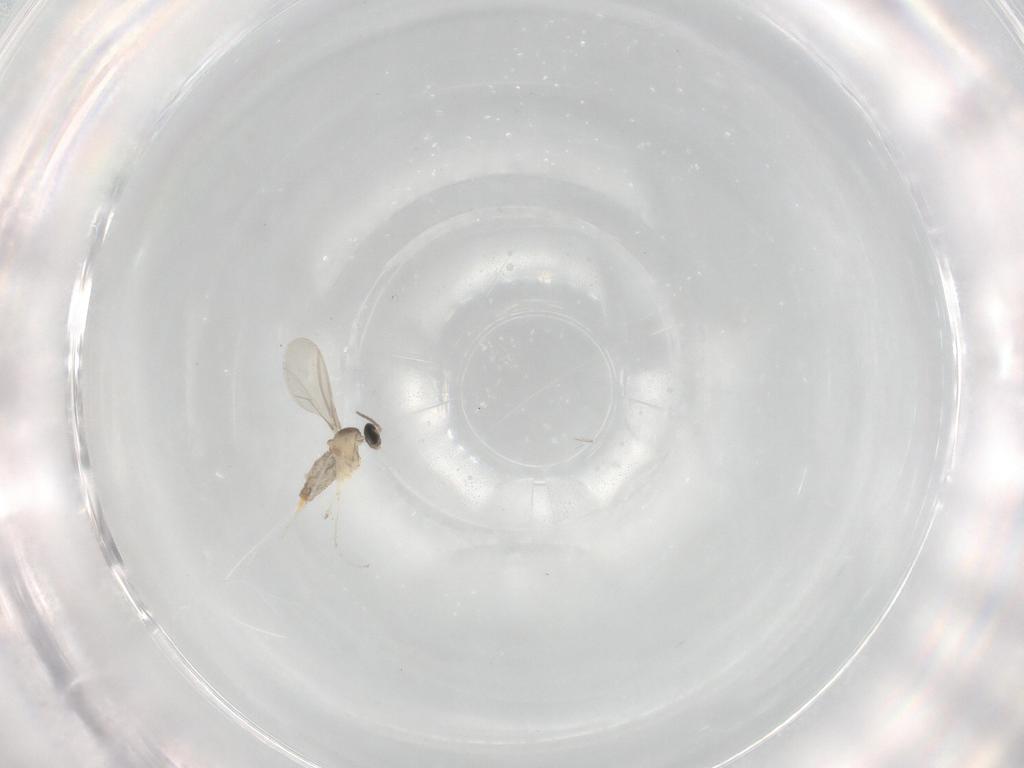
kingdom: Animalia
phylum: Arthropoda
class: Insecta
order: Diptera
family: Cecidomyiidae
